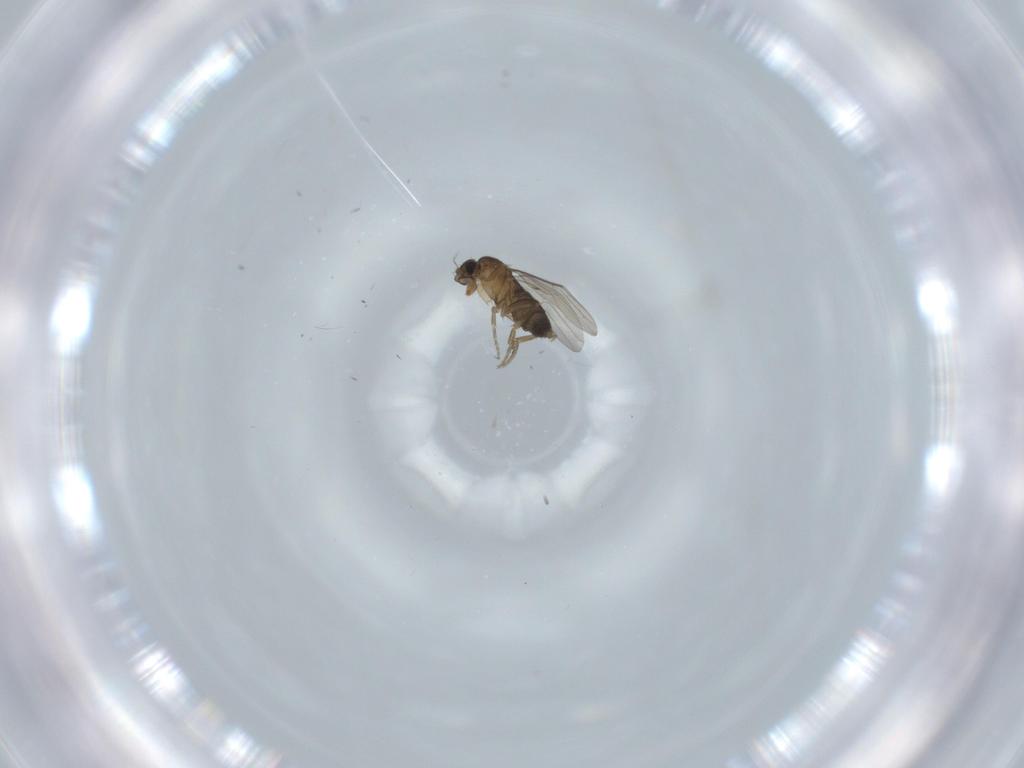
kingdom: Animalia
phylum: Arthropoda
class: Insecta
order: Diptera
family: Phoridae
